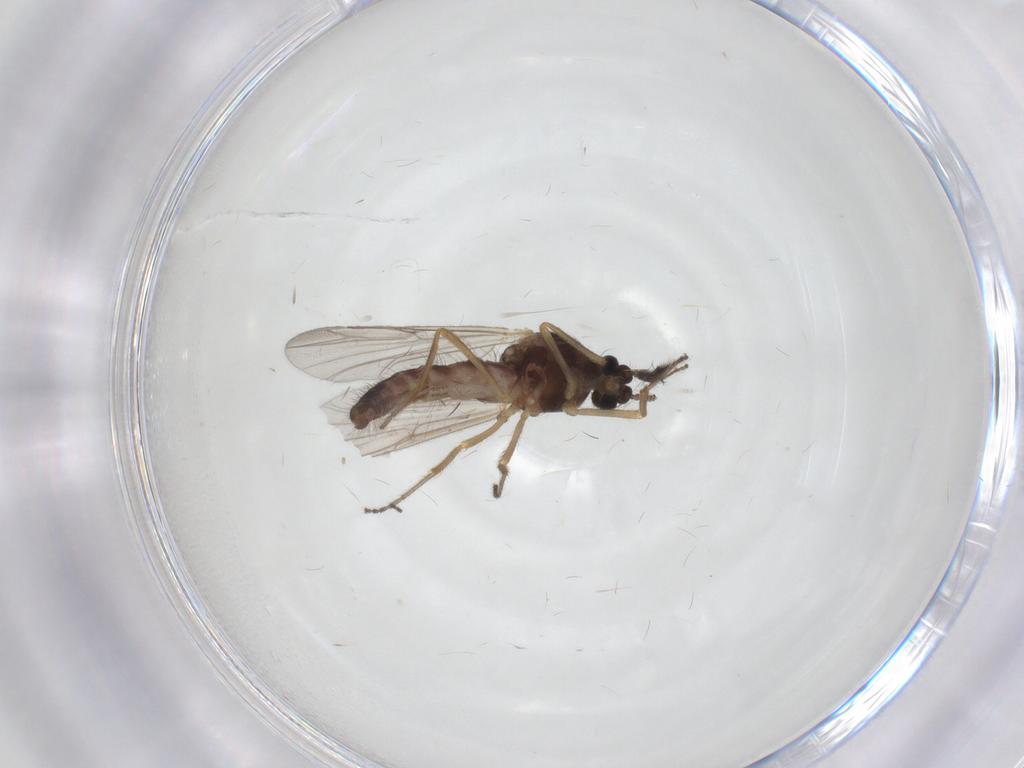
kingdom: Animalia
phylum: Arthropoda
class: Insecta
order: Diptera
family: Ceratopogonidae
